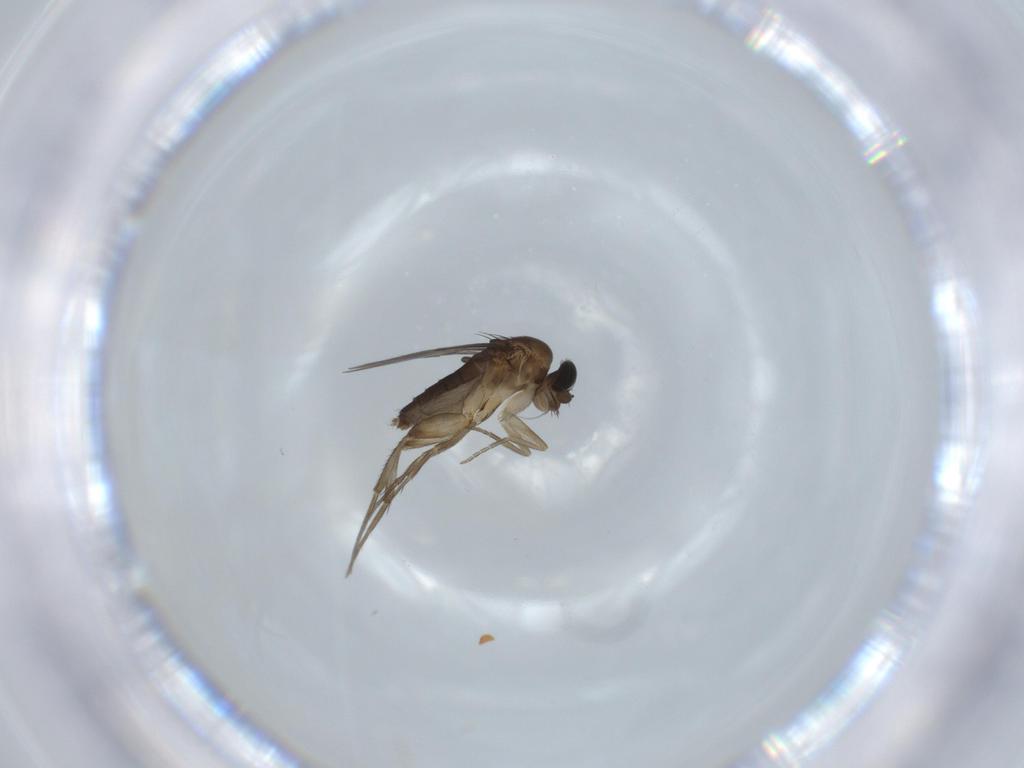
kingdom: Animalia
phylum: Arthropoda
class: Insecta
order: Diptera
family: Phoridae
